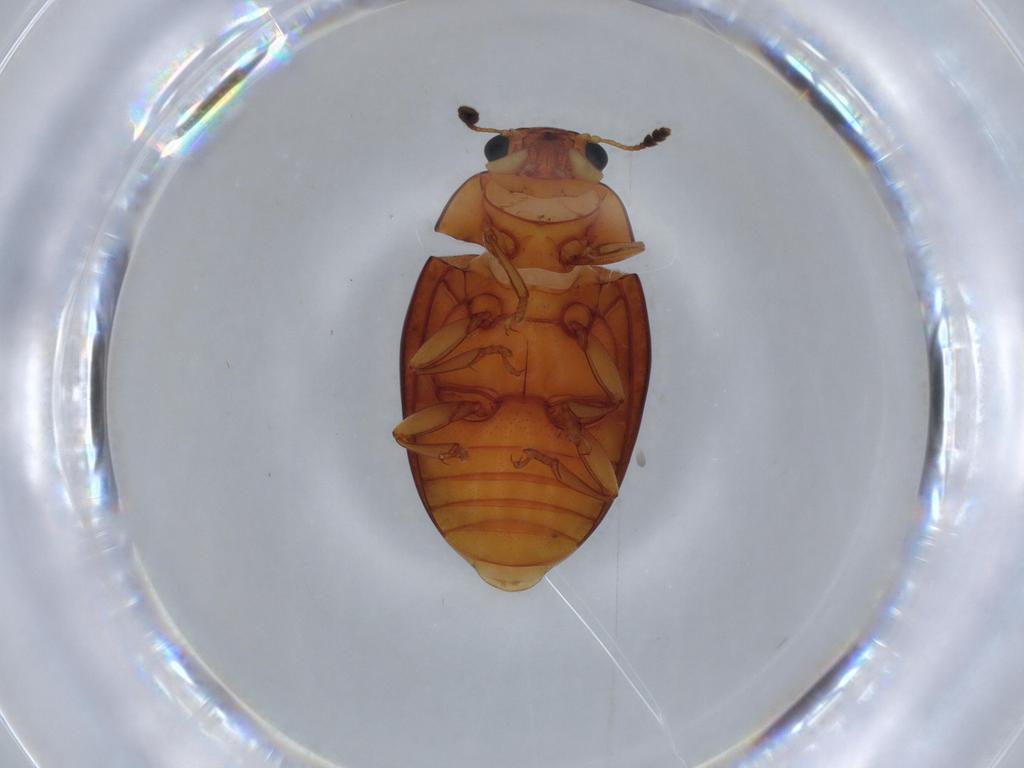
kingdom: Animalia
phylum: Arthropoda
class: Insecta
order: Coleoptera
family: Erotylidae
